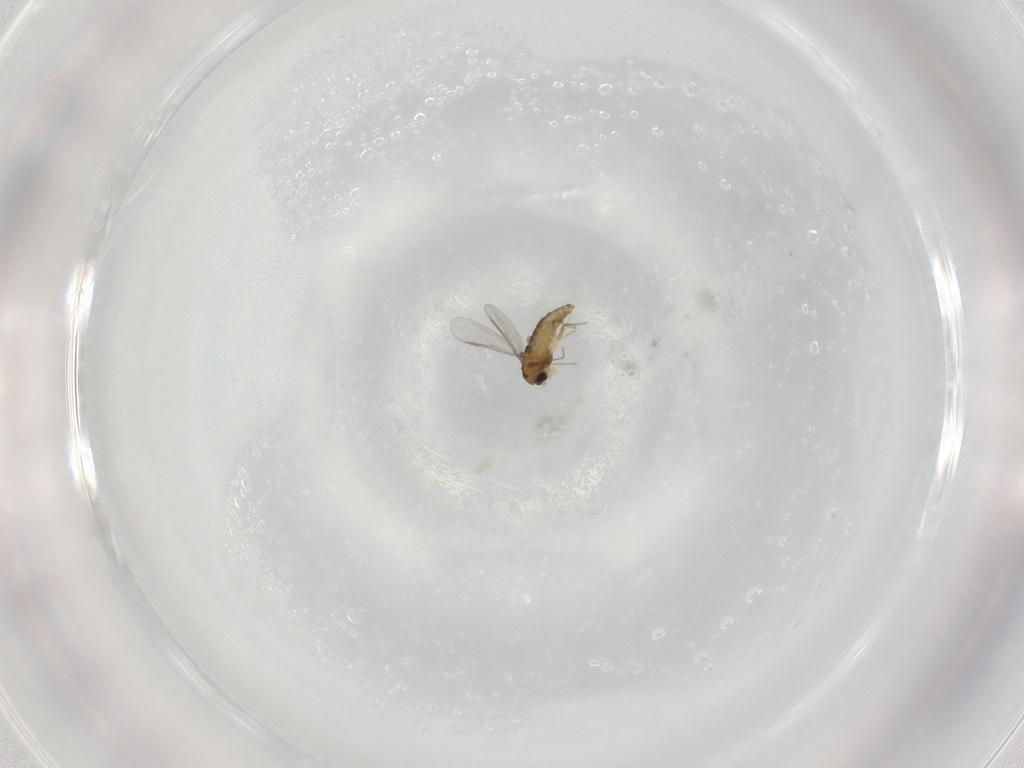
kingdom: Animalia
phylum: Arthropoda
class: Insecta
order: Diptera
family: Chironomidae
